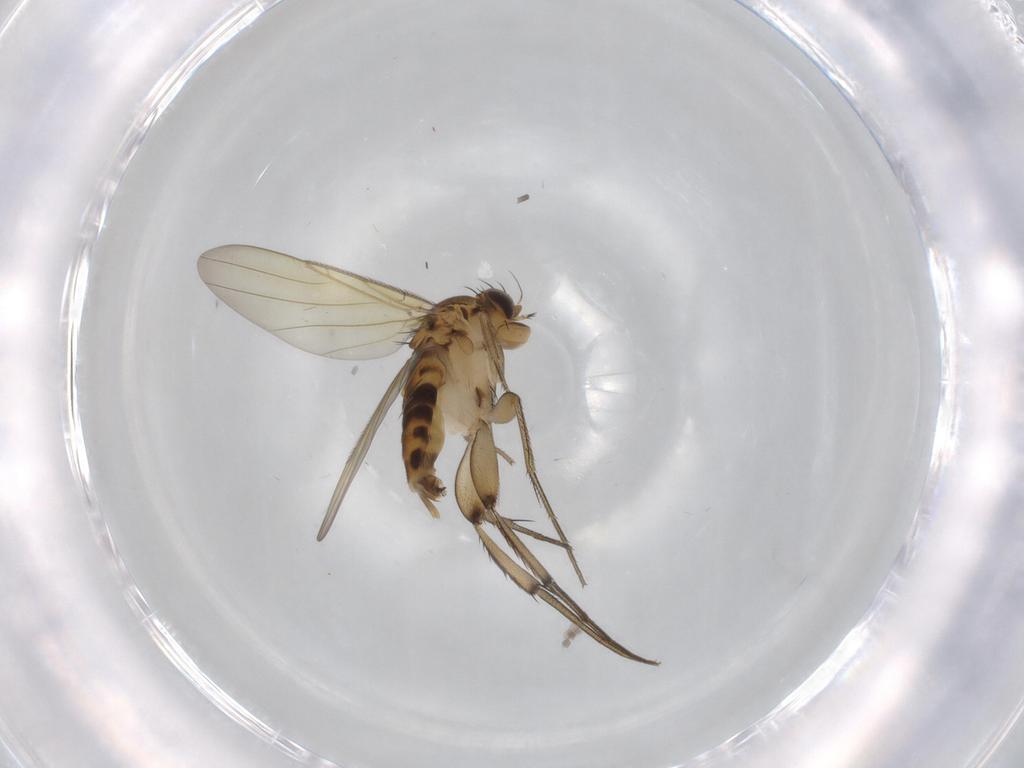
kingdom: Animalia
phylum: Arthropoda
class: Insecta
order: Diptera
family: Phoridae
